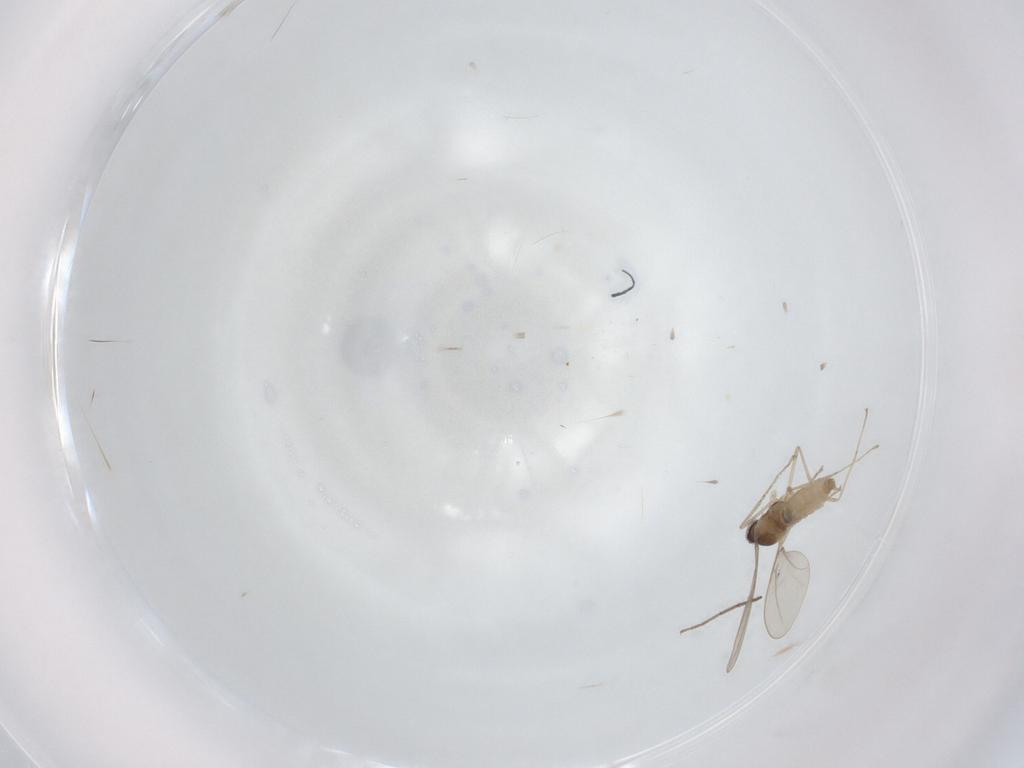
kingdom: Animalia
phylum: Arthropoda
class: Insecta
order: Diptera
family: Cecidomyiidae
